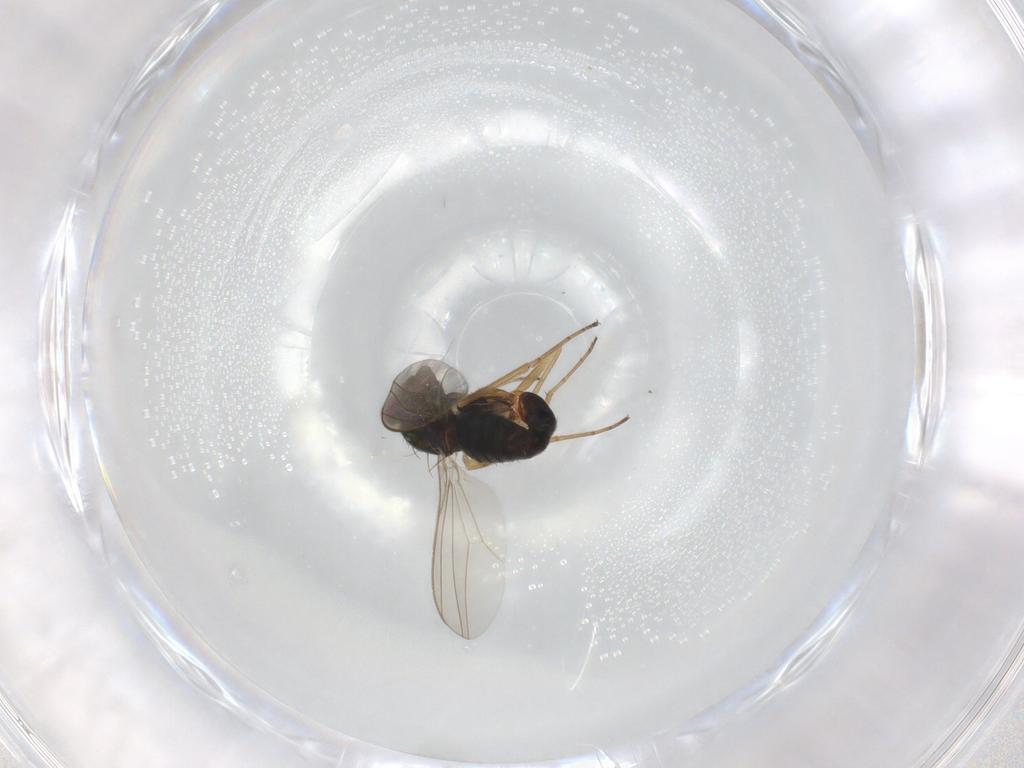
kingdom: Animalia
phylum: Arthropoda
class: Insecta
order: Diptera
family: Dolichopodidae
